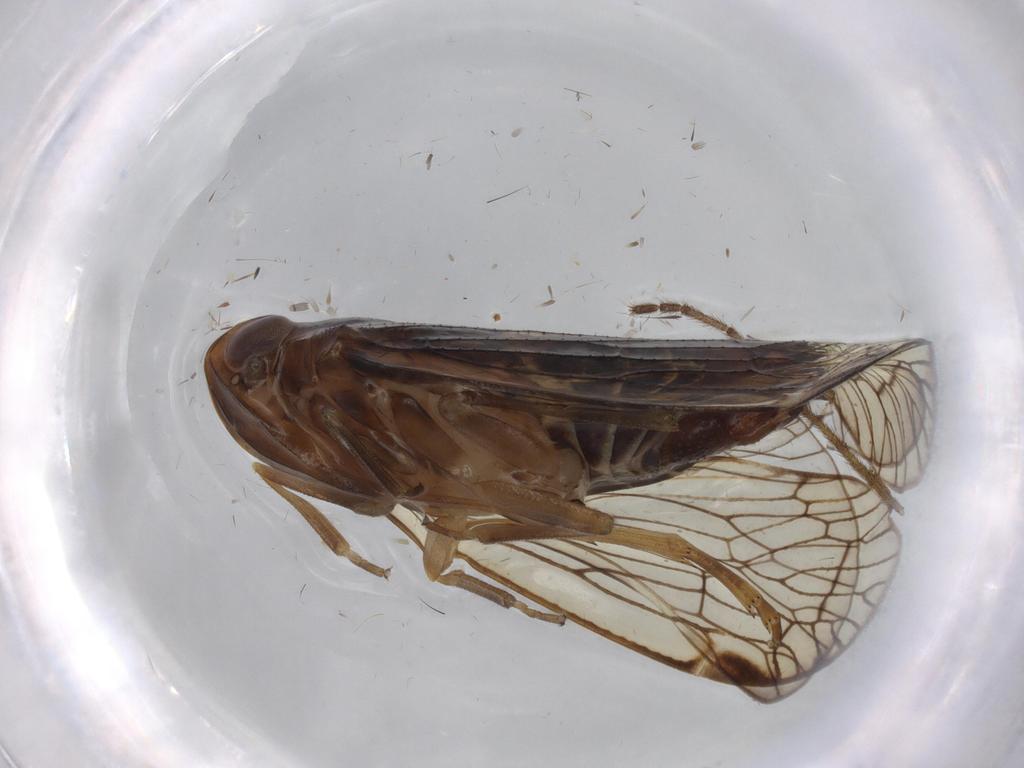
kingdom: Animalia
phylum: Arthropoda
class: Insecta
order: Hemiptera
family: Cixiidae
